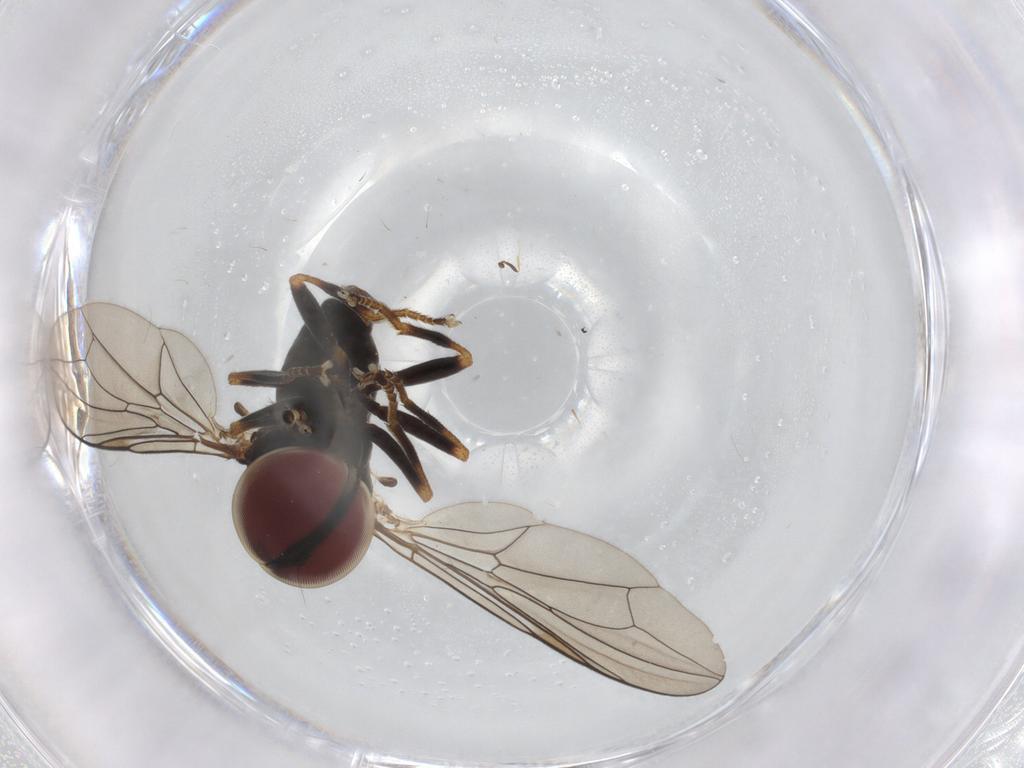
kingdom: Animalia
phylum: Arthropoda
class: Insecta
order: Diptera
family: Pipunculidae
